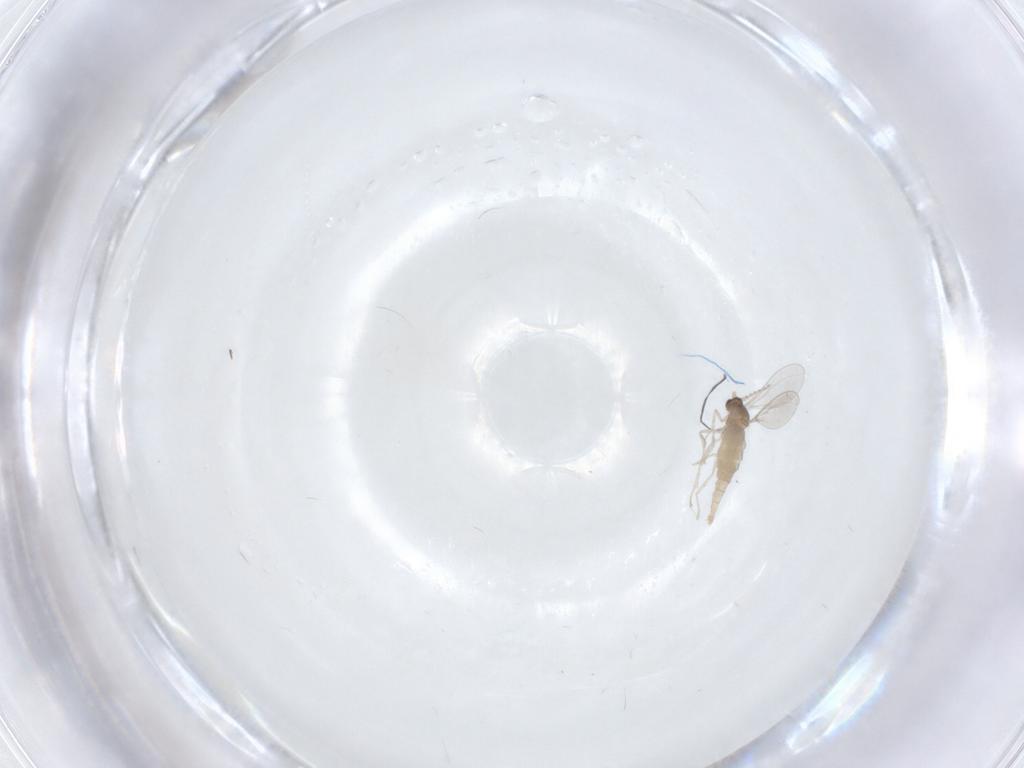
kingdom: Animalia
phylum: Arthropoda
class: Insecta
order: Diptera
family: Cecidomyiidae
